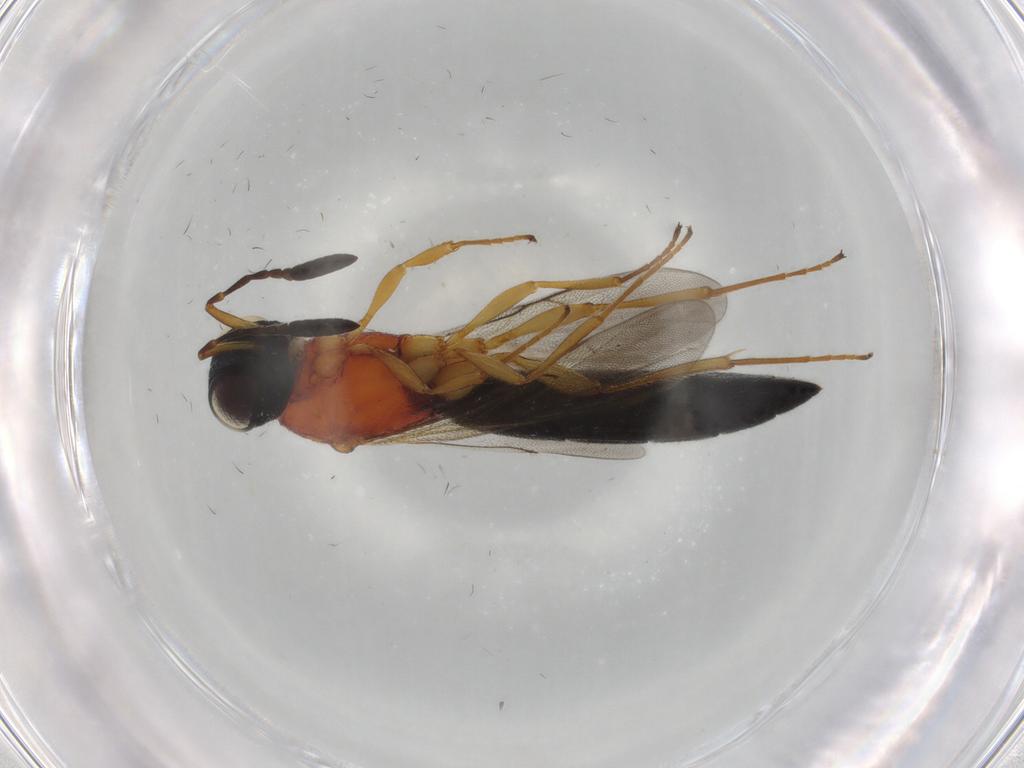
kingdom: Animalia
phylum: Arthropoda
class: Insecta
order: Hymenoptera
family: Scelionidae
